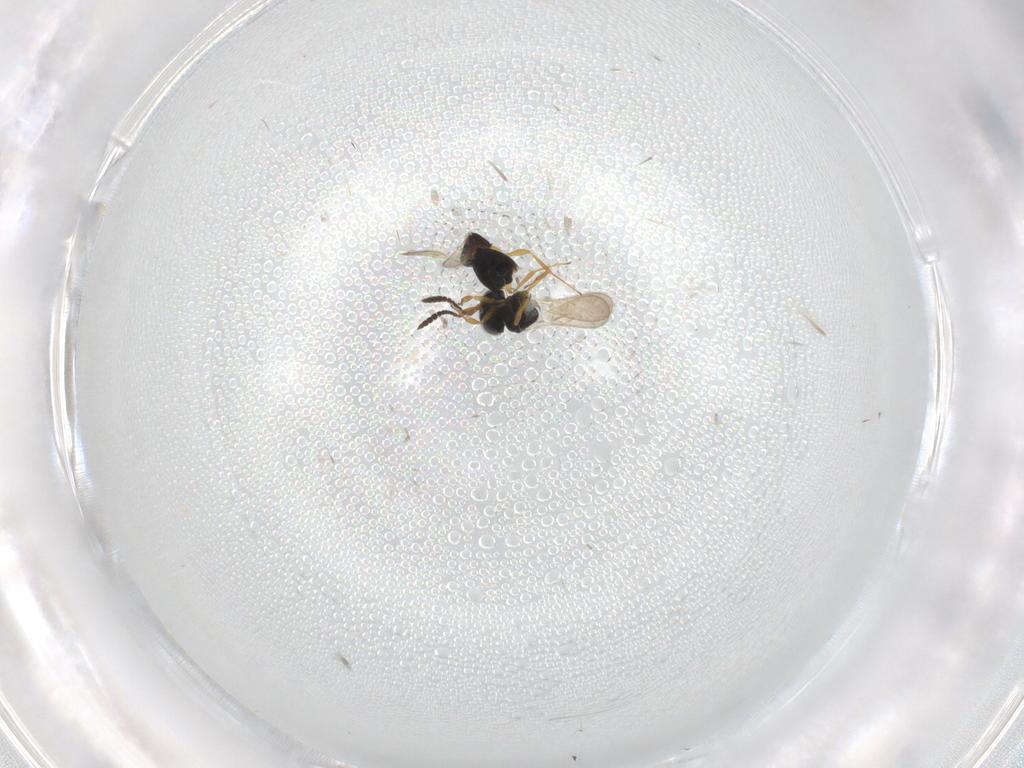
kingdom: Animalia
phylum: Arthropoda
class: Insecta
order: Hymenoptera
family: Scelionidae
